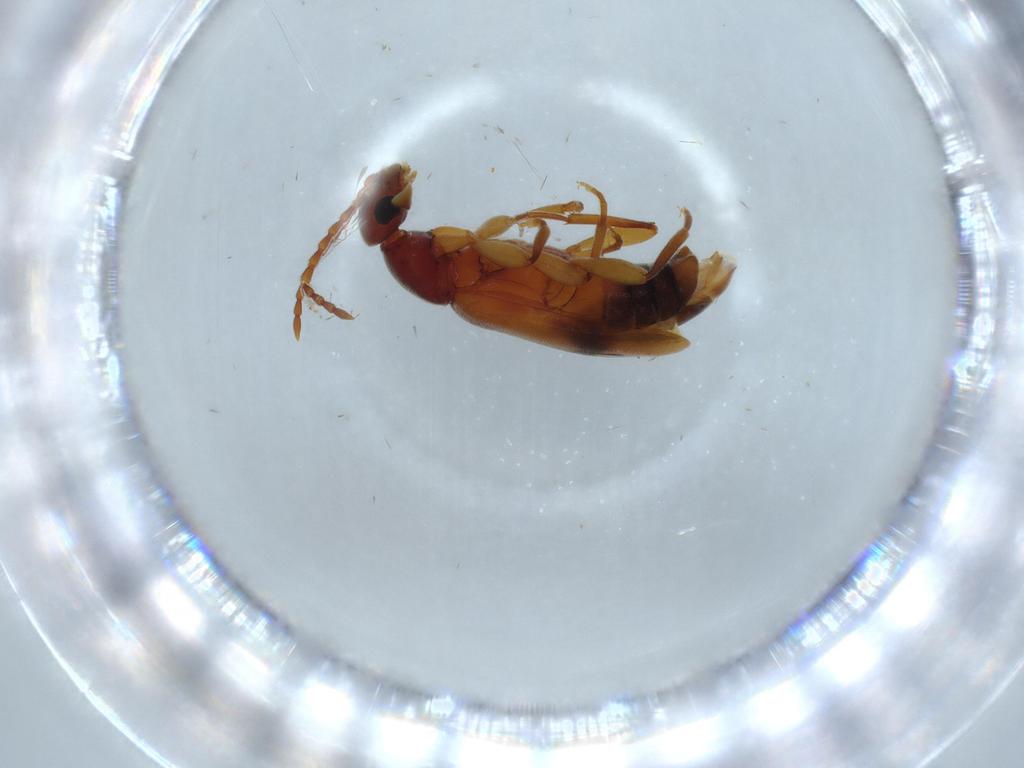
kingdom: Animalia
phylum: Arthropoda
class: Insecta
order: Coleoptera
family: Anthicidae
